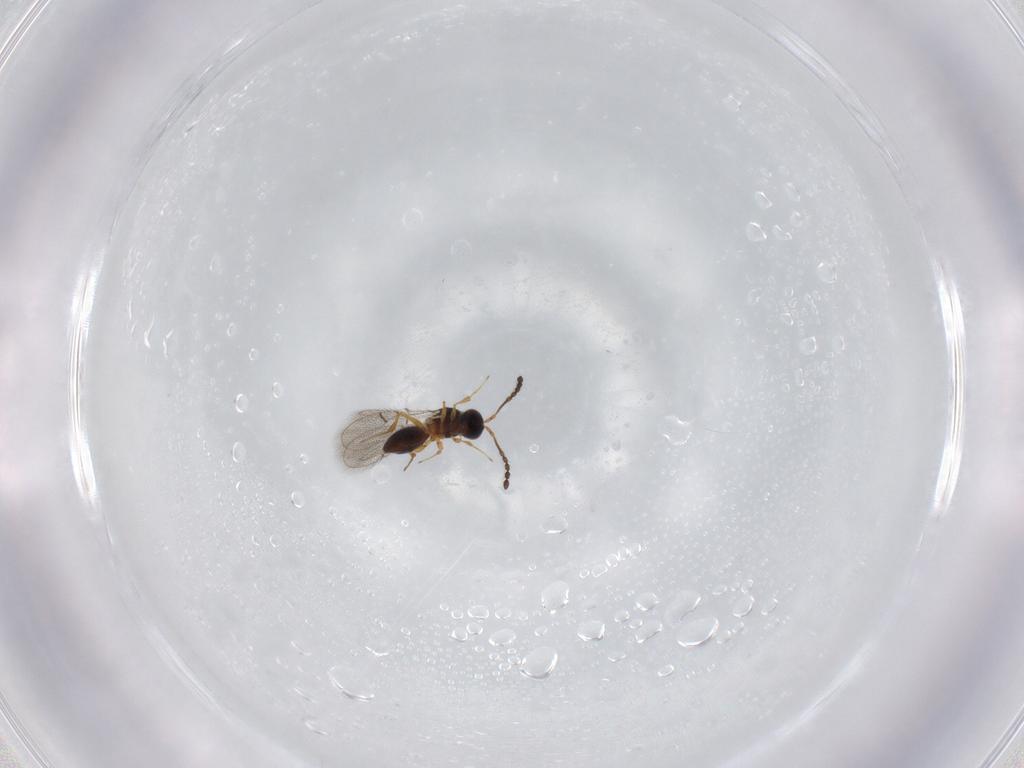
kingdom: Animalia
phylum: Arthropoda
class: Insecta
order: Hymenoptera
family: Figitidae
